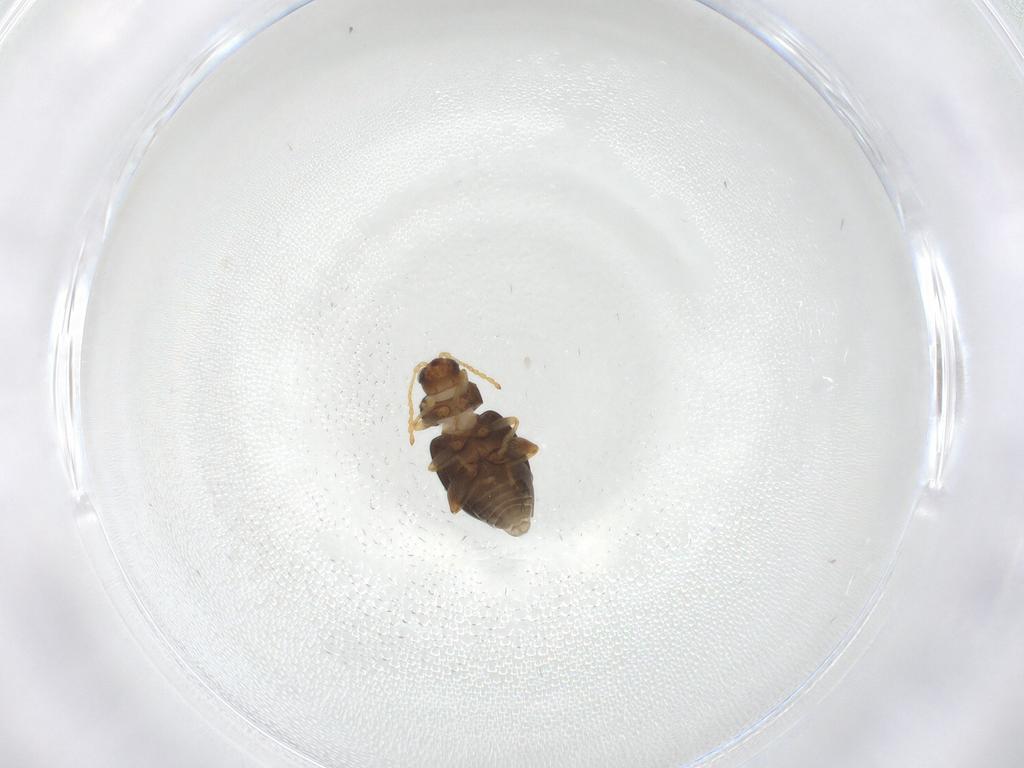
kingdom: Animalia
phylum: Arthropoda
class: Insecta
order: Coleoptera
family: Chrysomelidae
